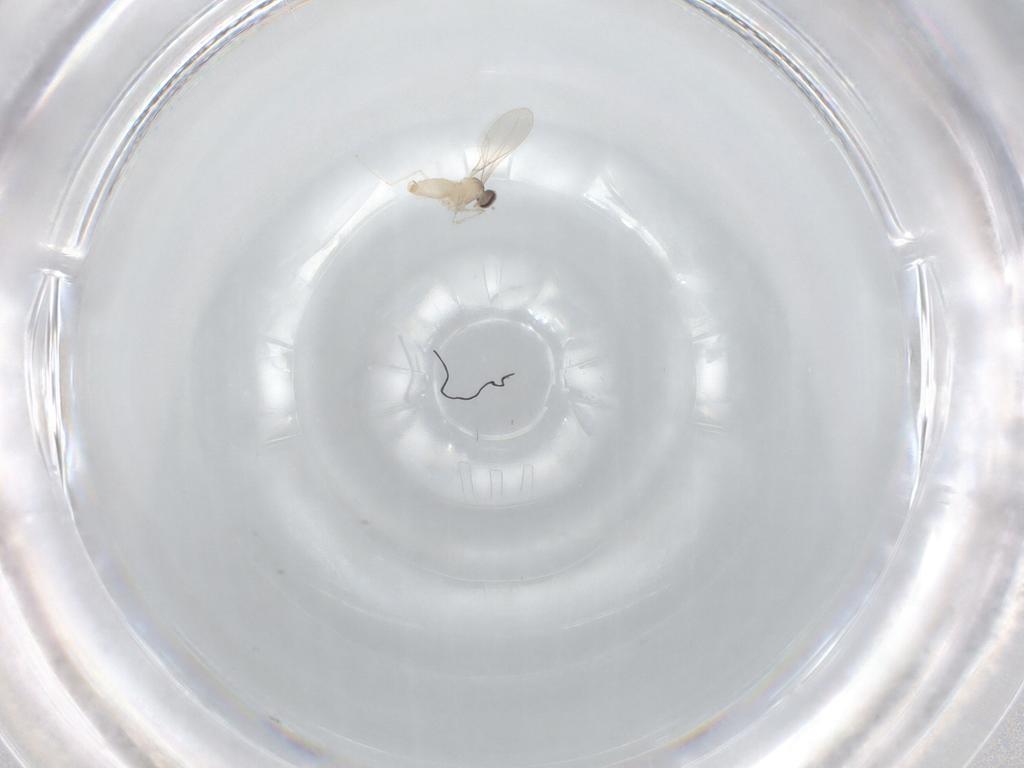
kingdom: Animalia
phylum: Arthropoda
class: Insecta
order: Diptera
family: Cecidomyiidae
